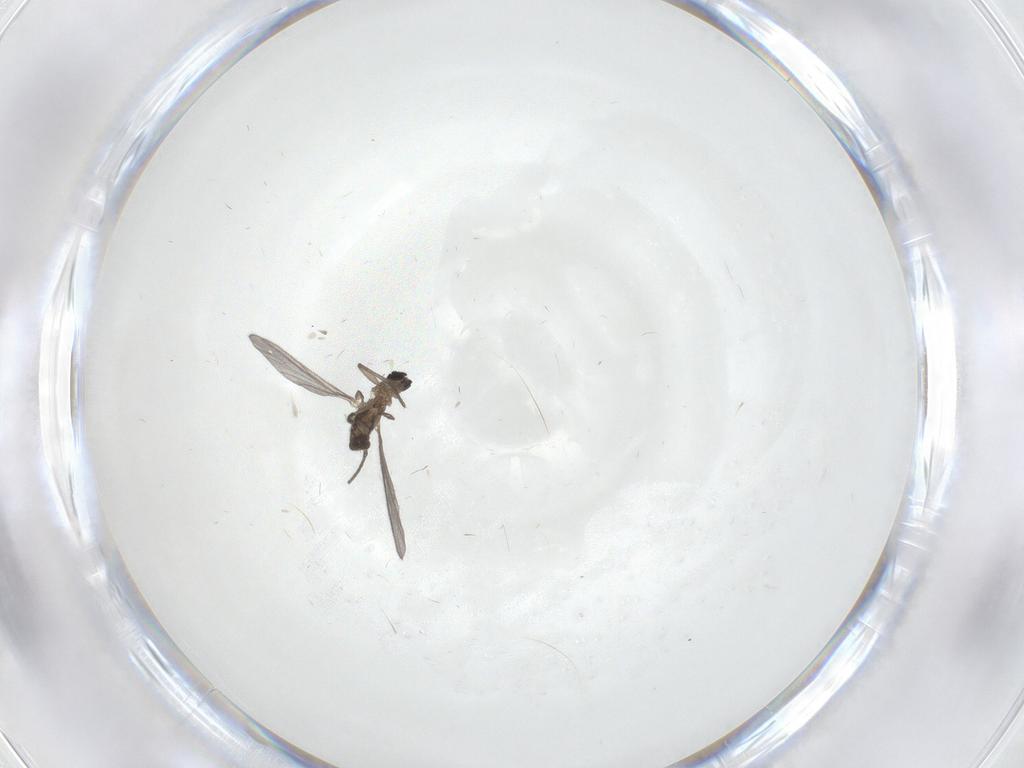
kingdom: Animalia
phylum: Arthropoda
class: Insecta
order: Diptera
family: Sciaridae
